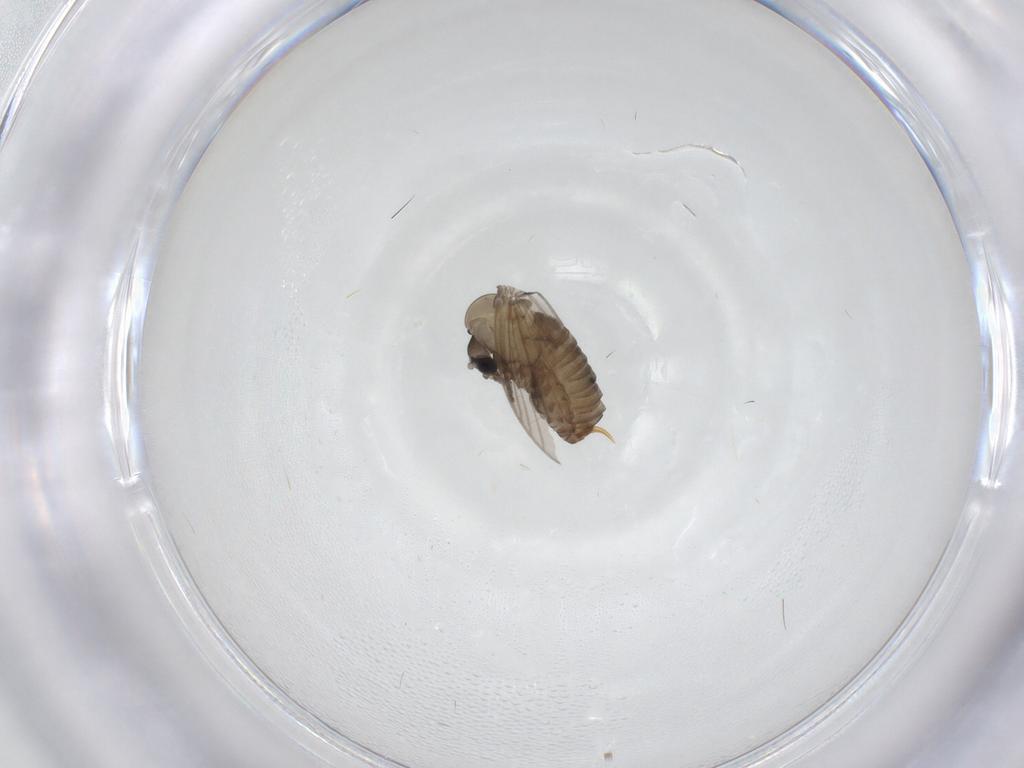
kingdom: Animalia
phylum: Arthropoda
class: Insecta
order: Diptera
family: Psychodidae
